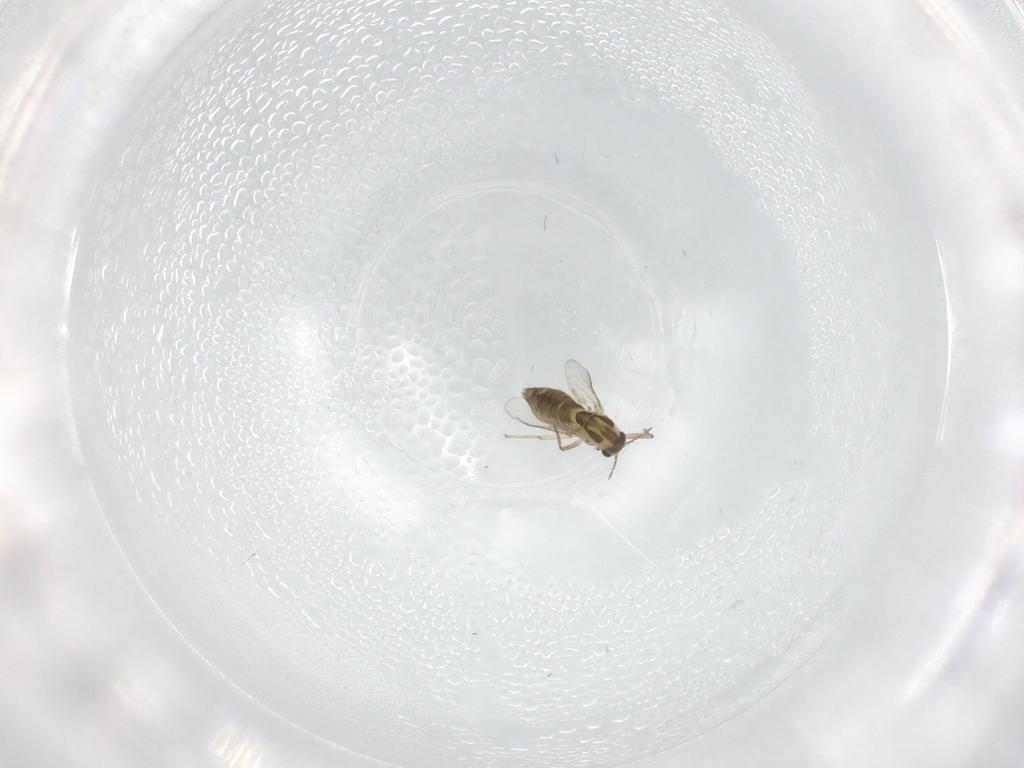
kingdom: Animalia
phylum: Arthropoda
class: Insecta
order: Diptera
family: Chironomidae
